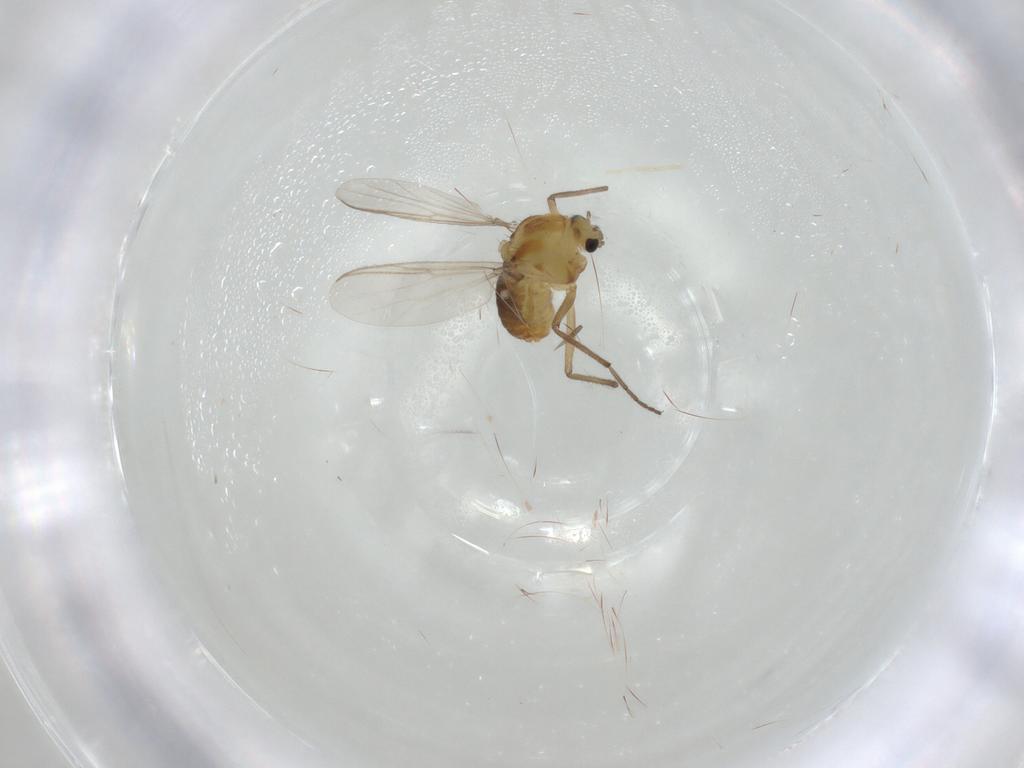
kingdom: Animalia
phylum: Arthropoda
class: Insecta
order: Diptera
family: Chironomidae
